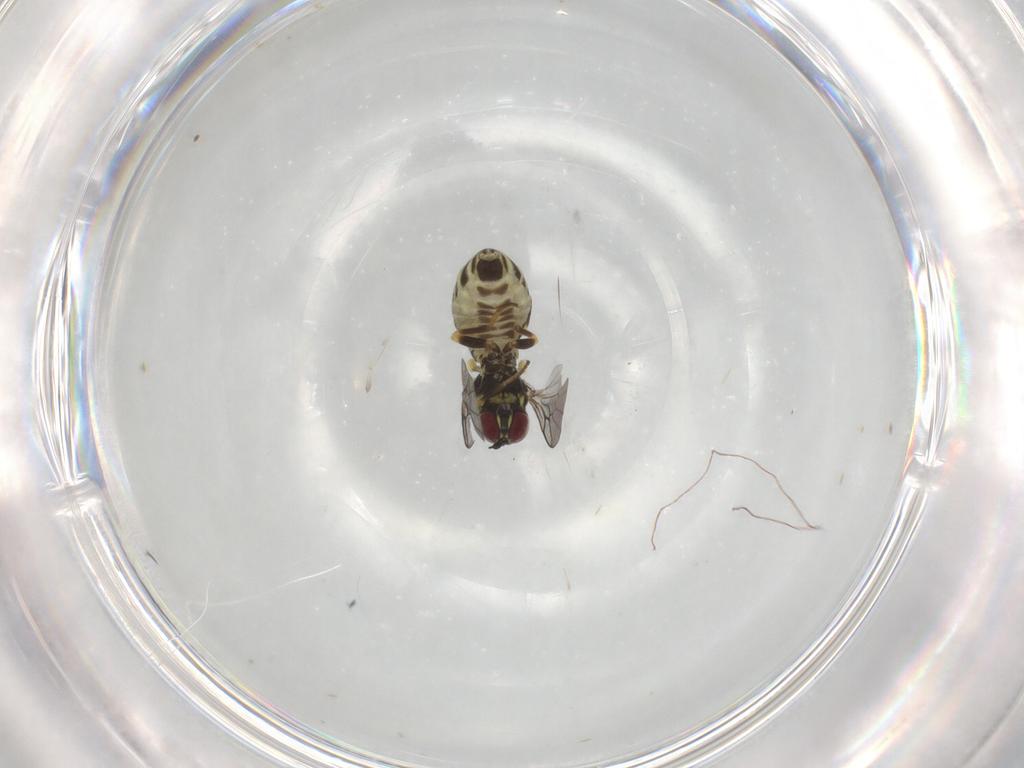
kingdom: Animalia
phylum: Arthropoda
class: Insecta
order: Diptera
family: Mythicomyiidae
